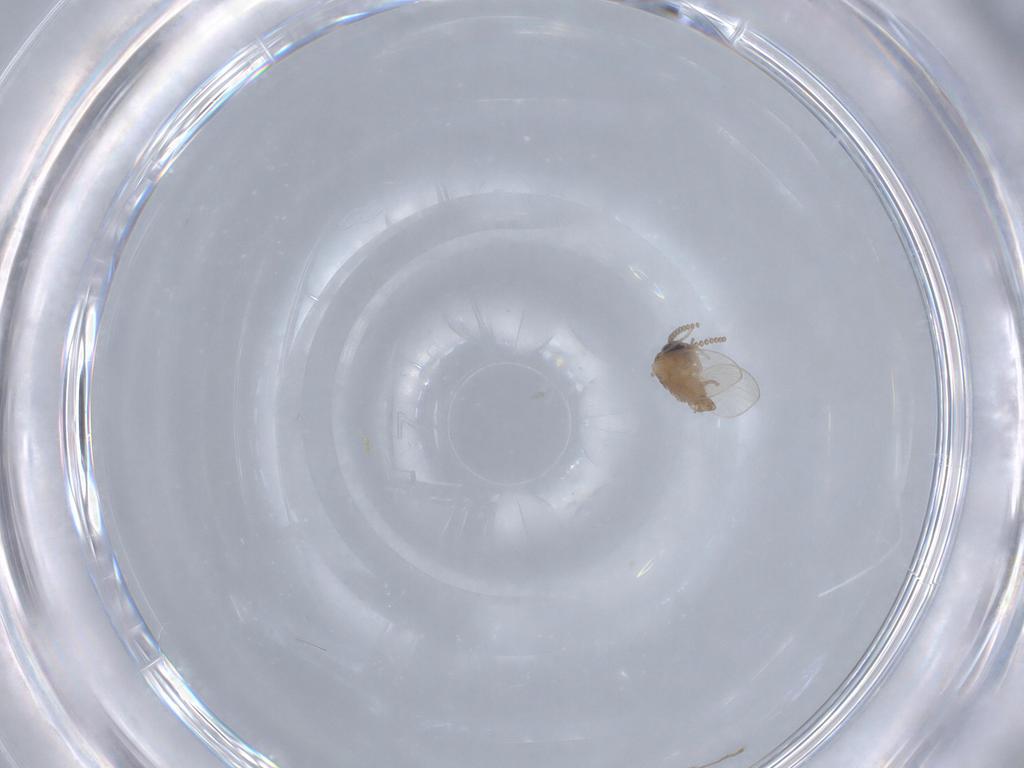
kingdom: Animalia
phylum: Arthropoda
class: Insecta
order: Diptera
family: Psychodidae
